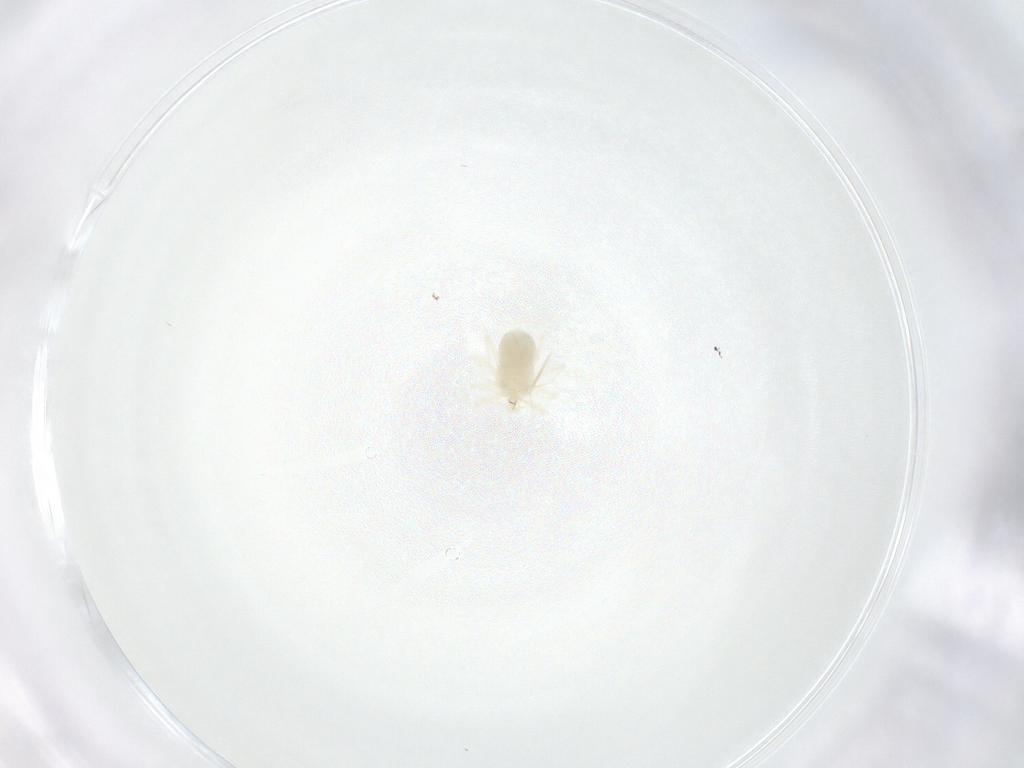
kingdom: Animalia
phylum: Arthropoda
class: Arachnida
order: Trombidiformes
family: Anystidae
